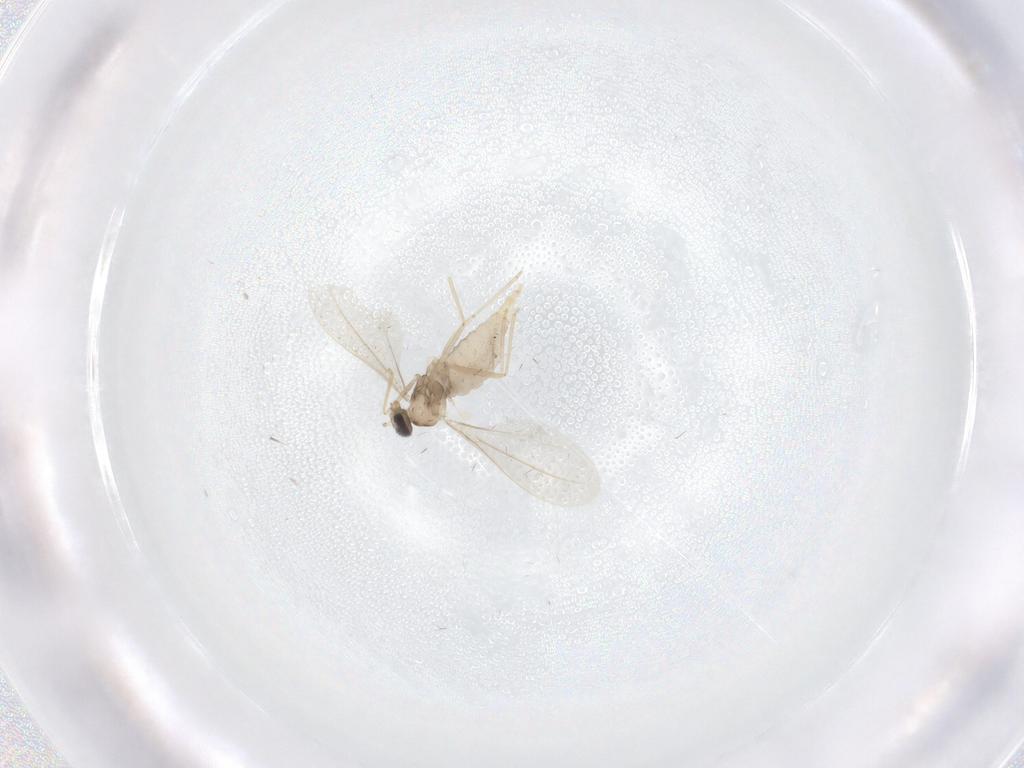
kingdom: Animalia
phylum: Arthropoda
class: Insecta
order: Diptera
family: Cecidomyiidae
